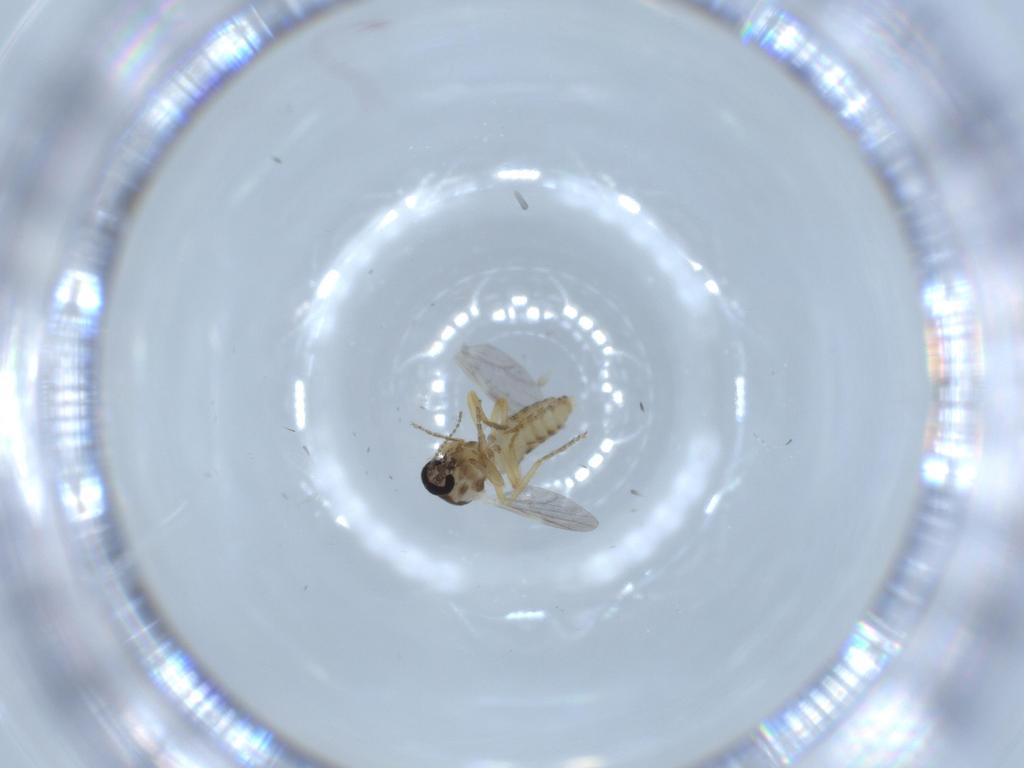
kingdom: Animalia
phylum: Arthropoda
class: Insecta
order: Diptera
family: Ceratopogonidae
